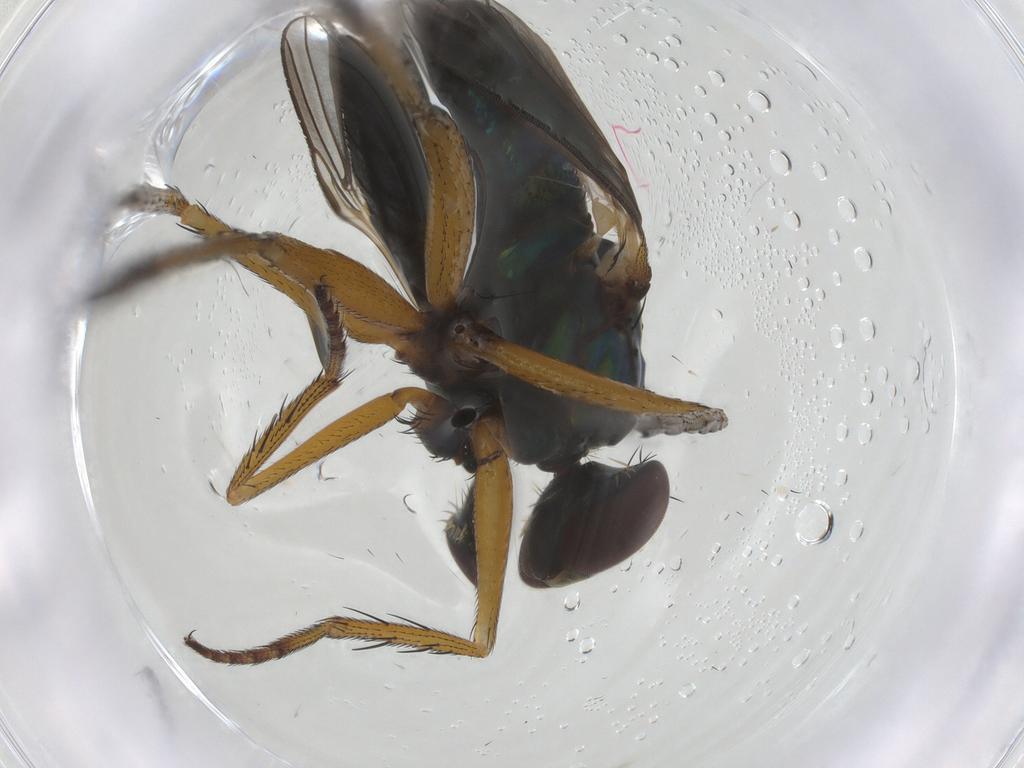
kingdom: Animalia
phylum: Arthropoda
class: Insecta
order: Diptera
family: Dolichopodidae
